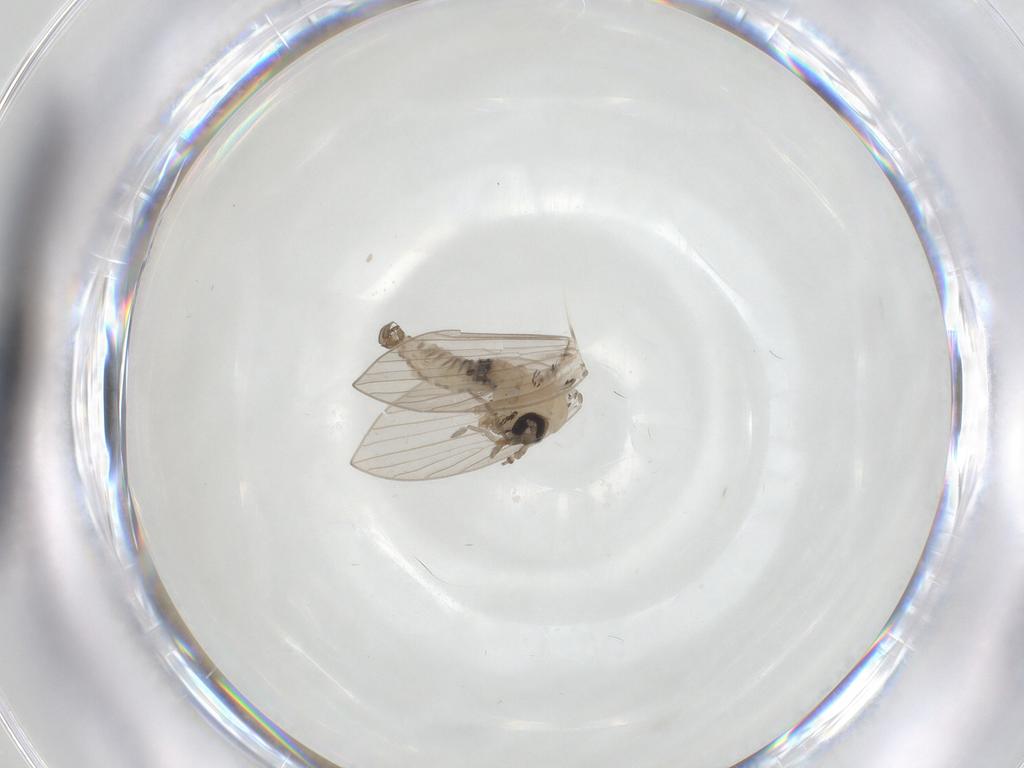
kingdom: Animalia
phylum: Arthropoda
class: Insecta
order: Diptera
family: Psychodidae
